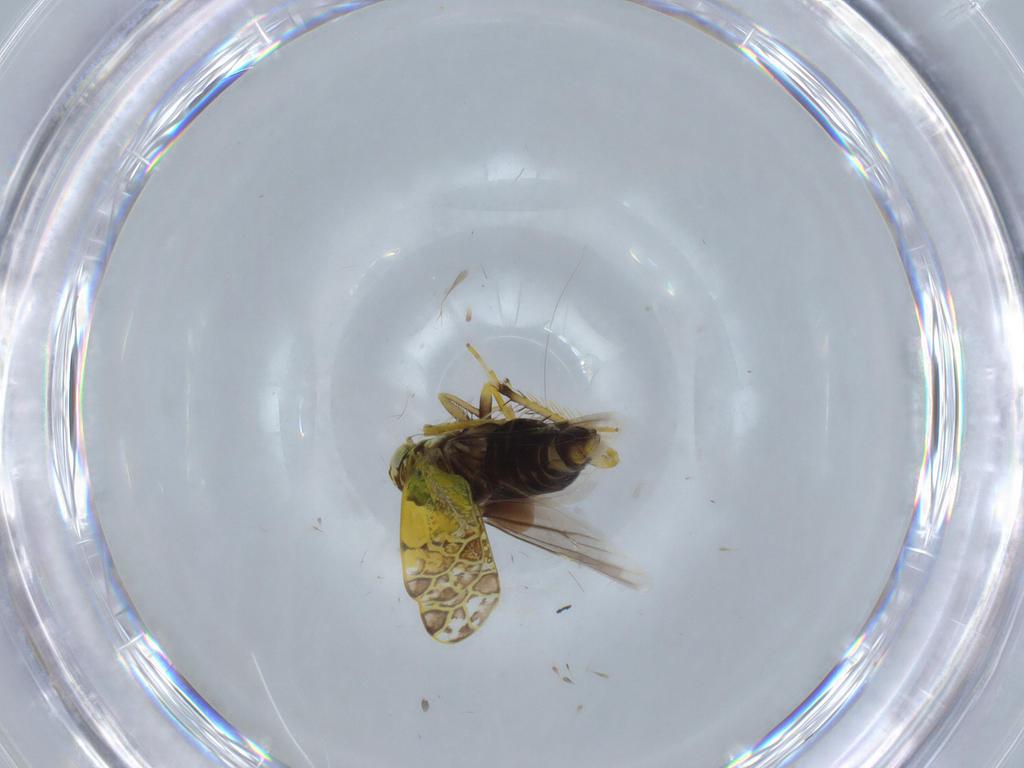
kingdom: Animalia
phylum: Arthropoda
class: Insecta
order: Hemiptera
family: Cicadellidae
